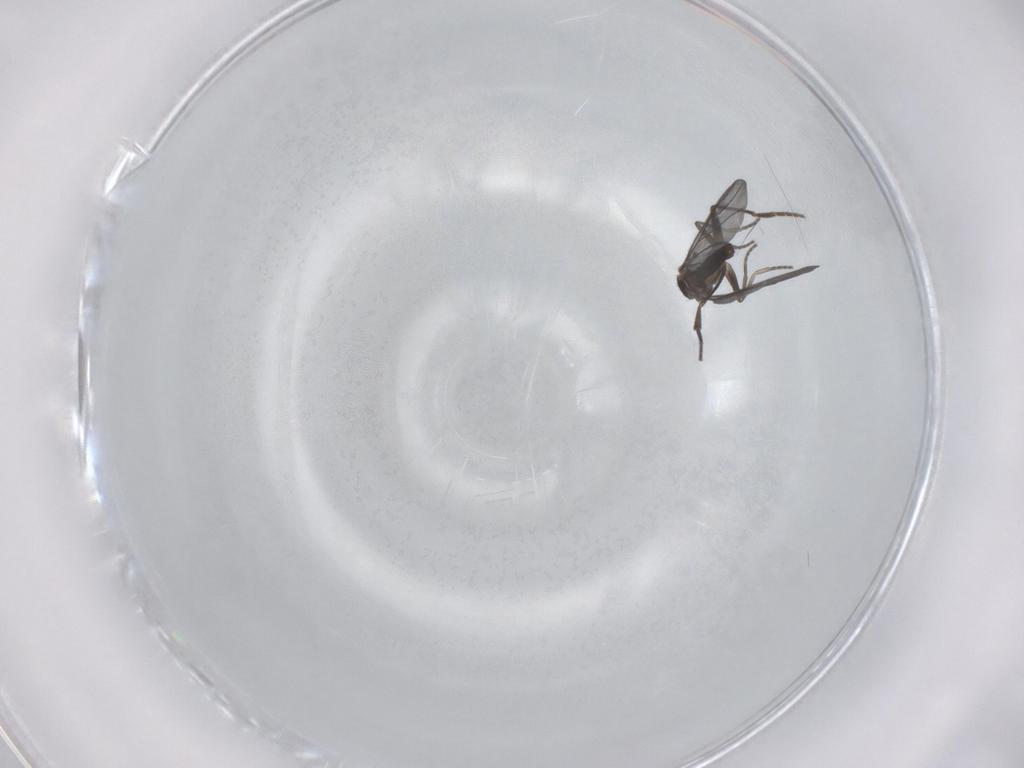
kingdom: Animalia
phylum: Arthropoda
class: Insecta
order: Diptera
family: Phoridae
